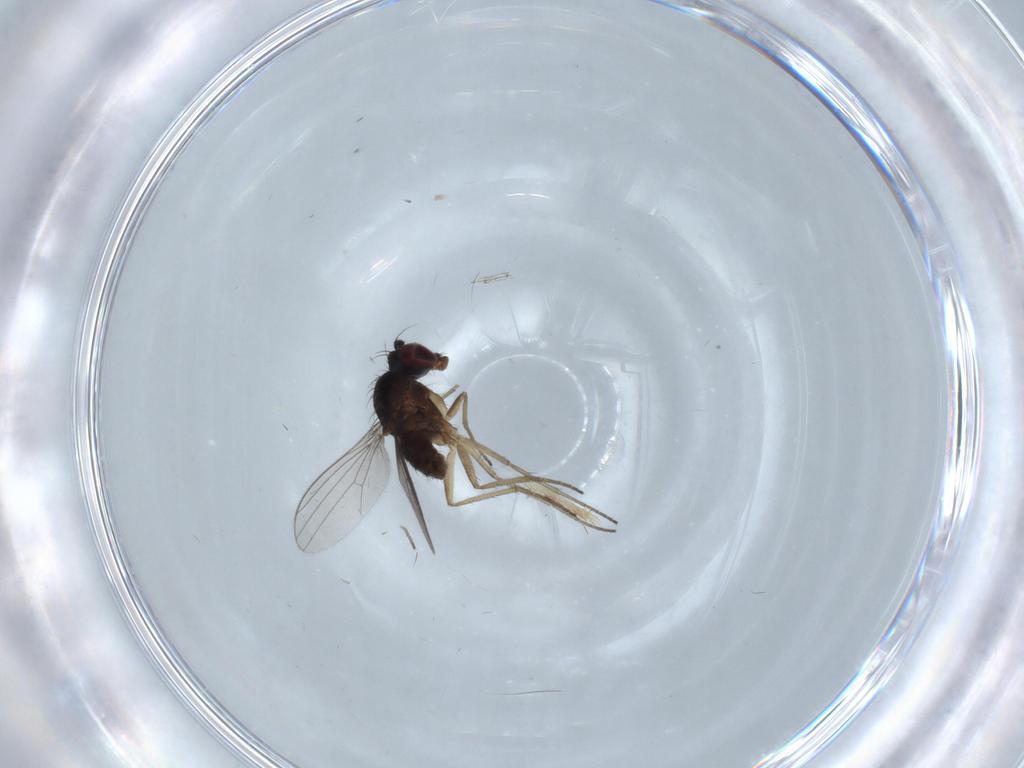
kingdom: Animalia
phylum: Arthropoda
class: Insecta
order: Diptera
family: Dolichopodidae
